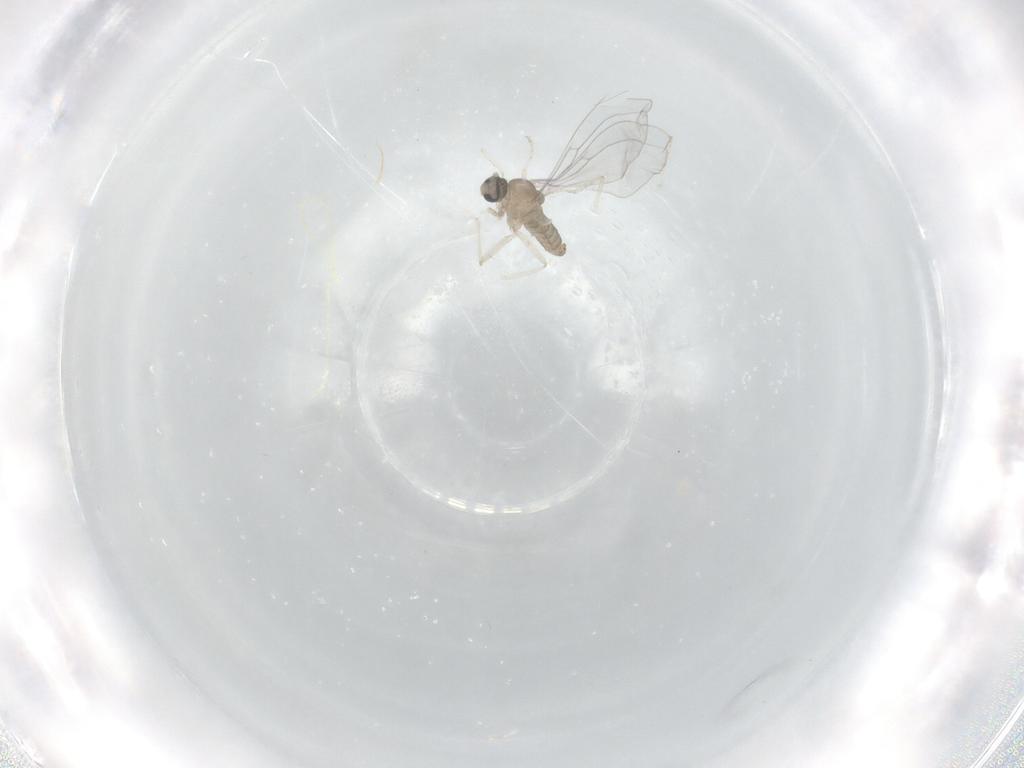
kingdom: Animalia
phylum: Arthropoda
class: Insecta
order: Diptera
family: Cecidomyiidae
